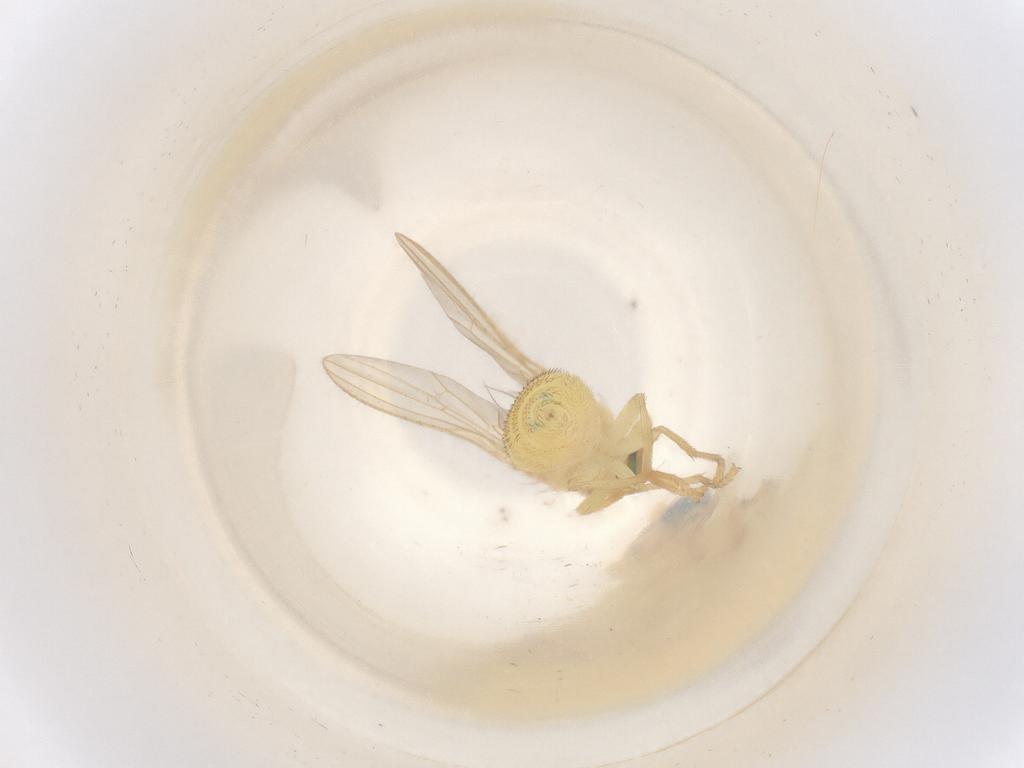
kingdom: Animalia
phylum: Arthropoda
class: Insecta
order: Diptera
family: Chyromyidae
